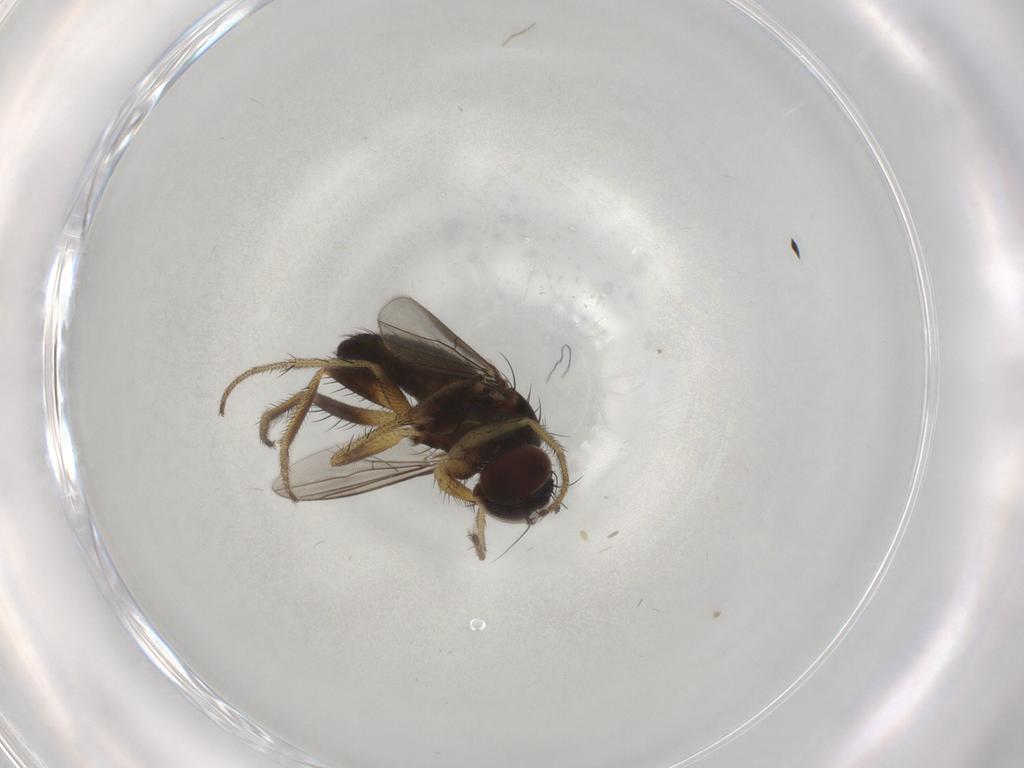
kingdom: Animalia
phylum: Arthropoda
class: Insecta
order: Diptera
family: Dolichopodidae
